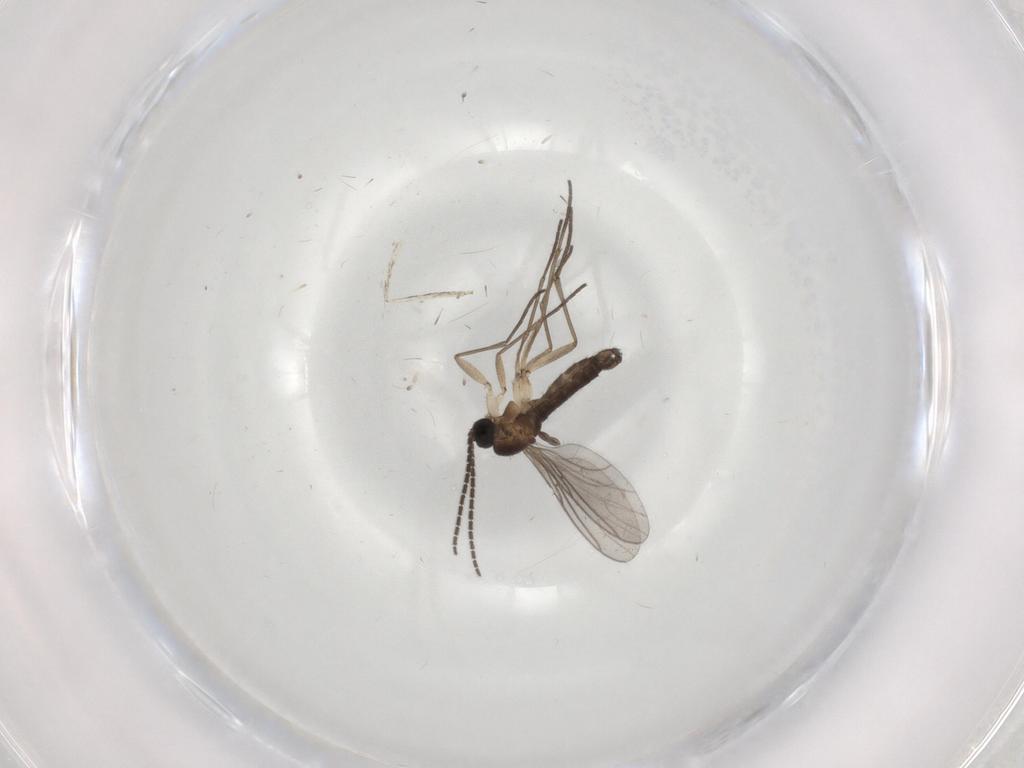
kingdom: Animalia
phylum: Arthropoda
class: Insecta
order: Diptera
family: Cecidomyiidae
